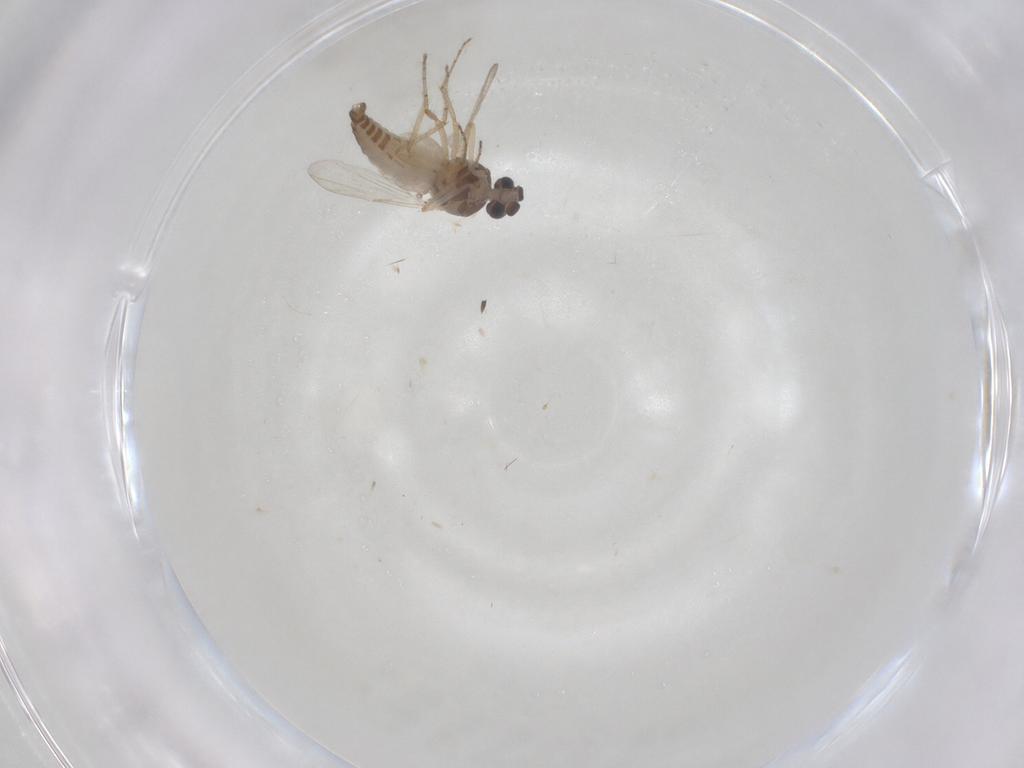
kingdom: Animalia
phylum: Arthropoda
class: Insecta
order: Diptera
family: Ceratopogonidae
